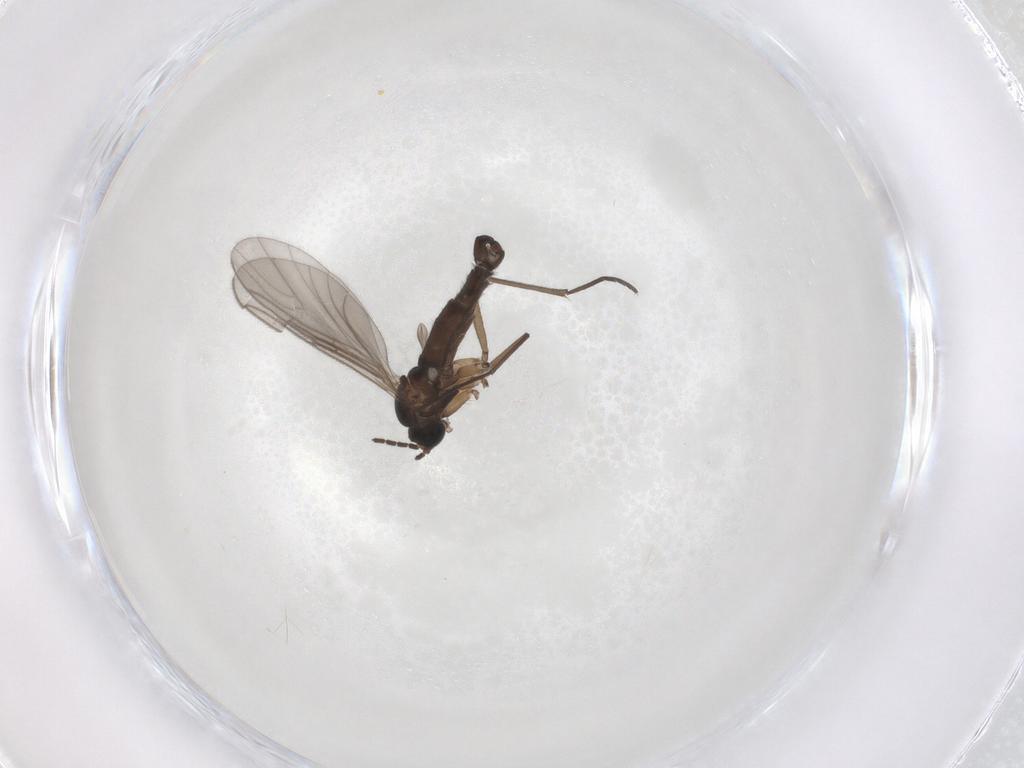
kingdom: Animalia
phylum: Arthropoda
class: Insecta
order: Diptera
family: Sciaridae
